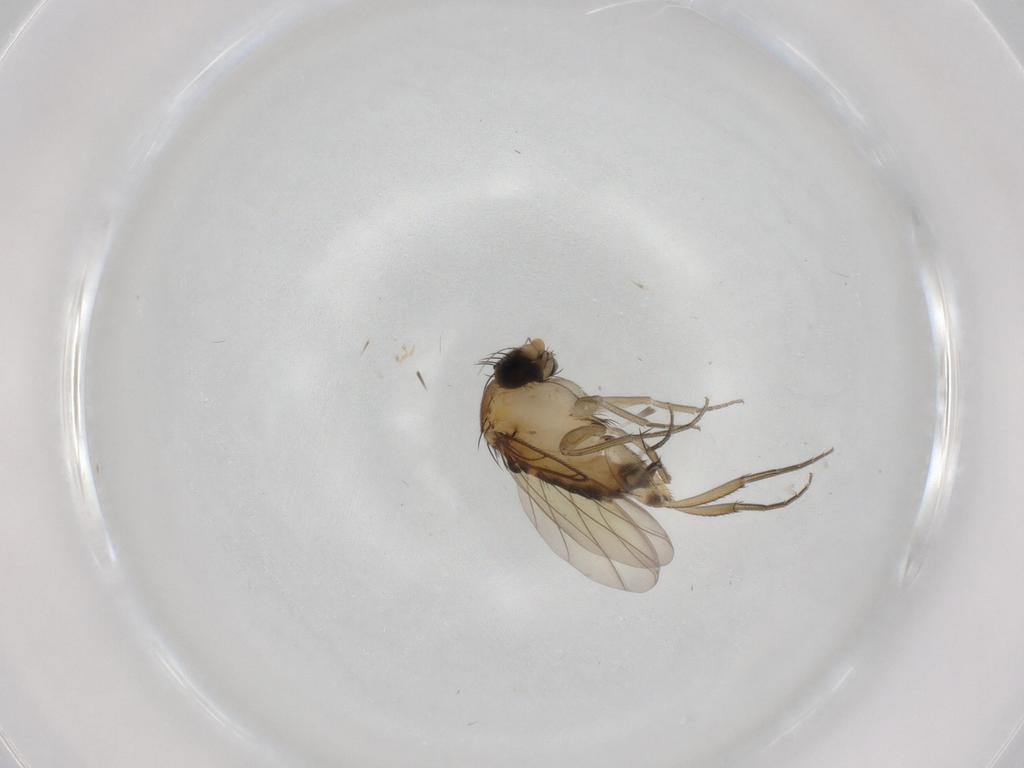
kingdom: Animalia
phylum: Arthropoda
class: Insecta
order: Diptera
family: Phoridae
